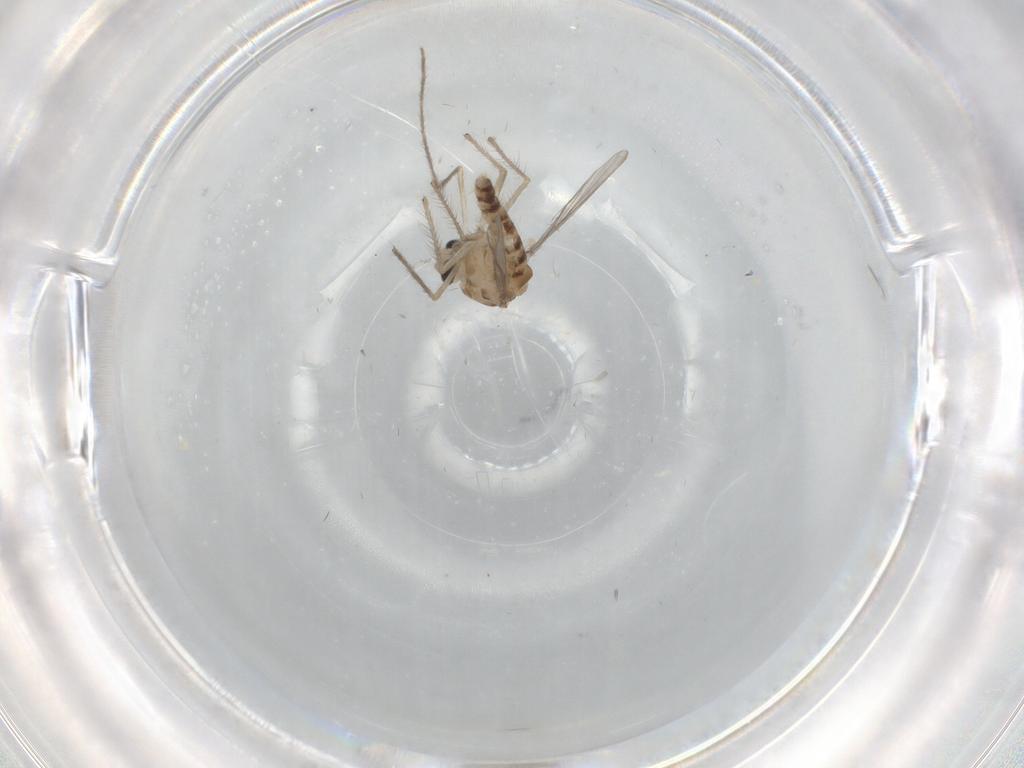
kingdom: Animalia
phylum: Arthropoda
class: Insecta
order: Diptera
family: Chironomidae
